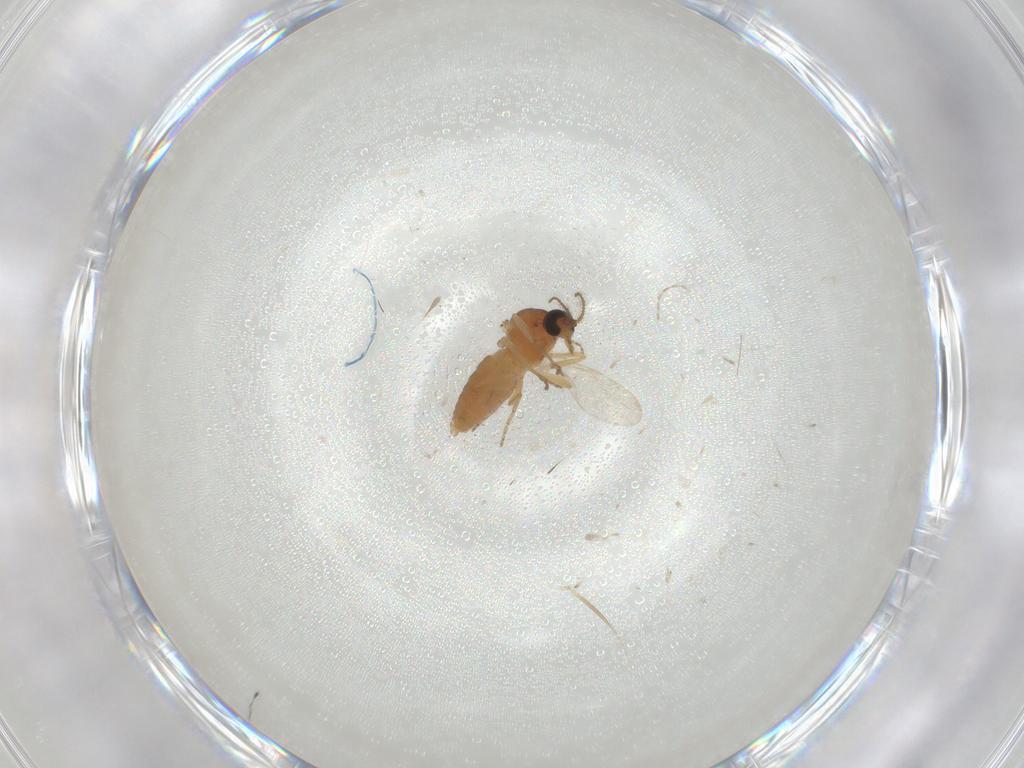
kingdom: Animalia
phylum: Arthropoda
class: Insecta
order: Diptera
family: Ceratopogonidae
